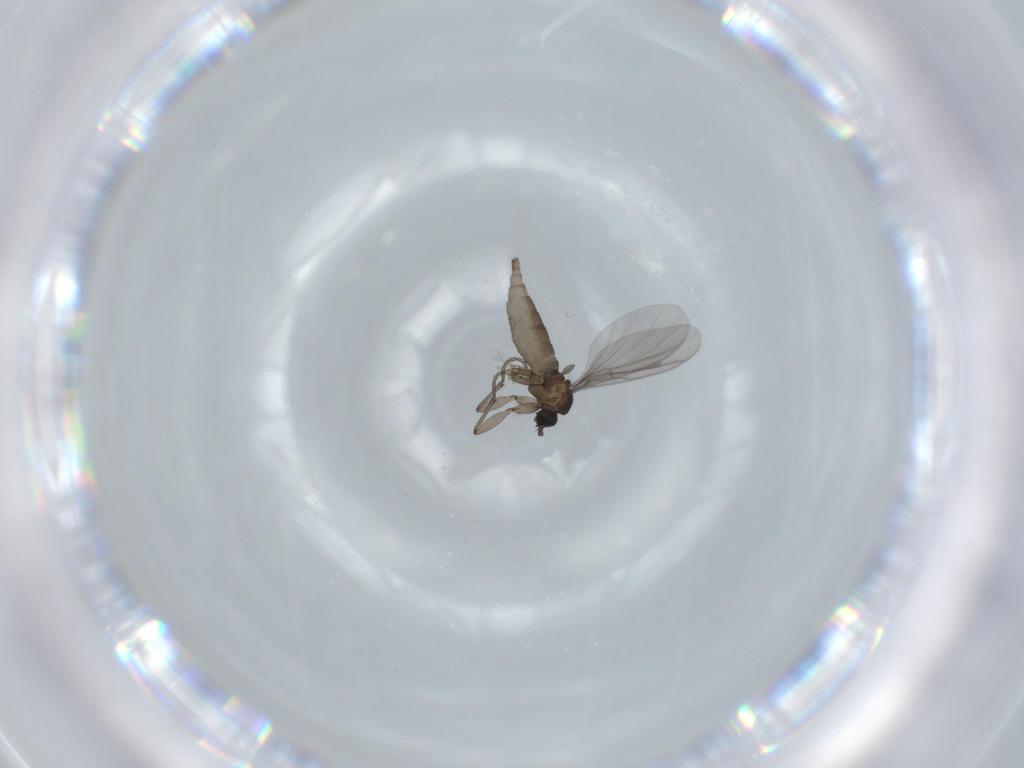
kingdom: Animalia
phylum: Arthropoda
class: Insecta
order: Diptera
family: Sciaridae
